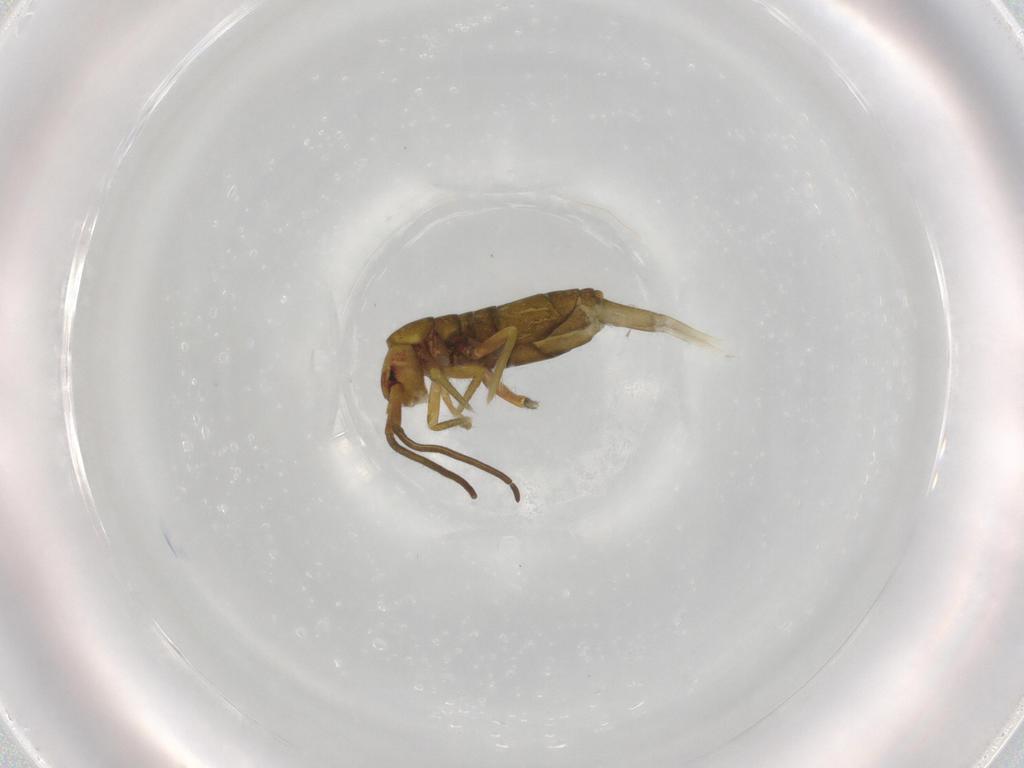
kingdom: Animalia
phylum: Arthropoda
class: Collembola
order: Entomobryomorpha
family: Tomoceridae
